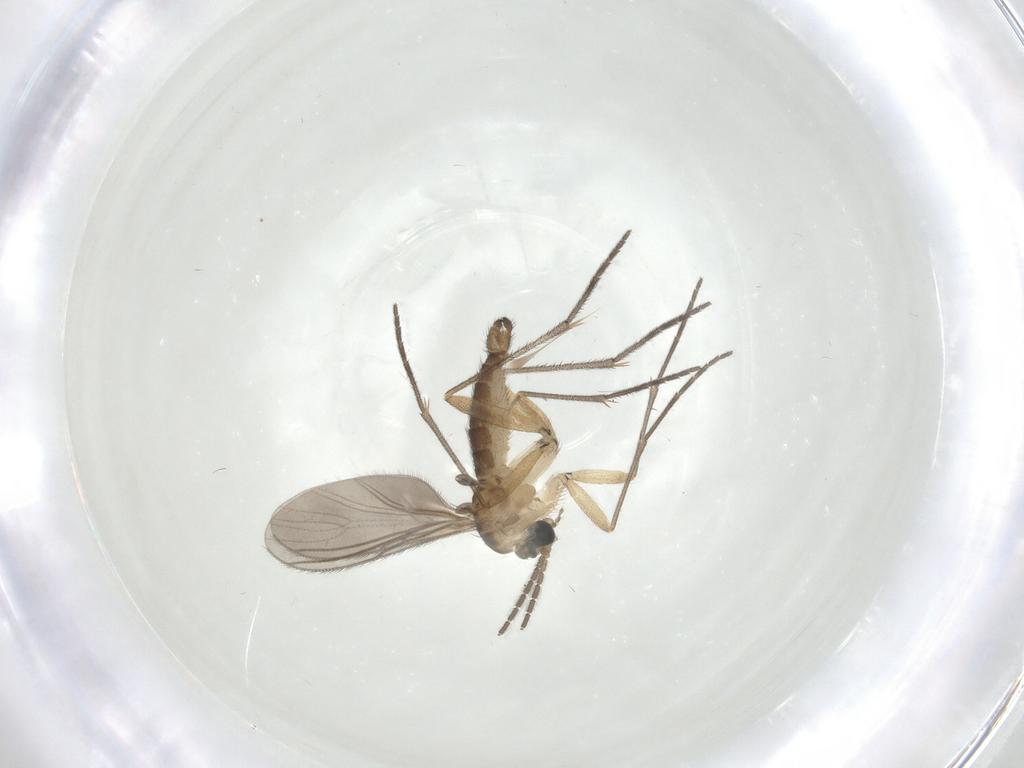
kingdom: Animalia
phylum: Arthropoda
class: Insecta
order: Diptera
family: Sciaridae
